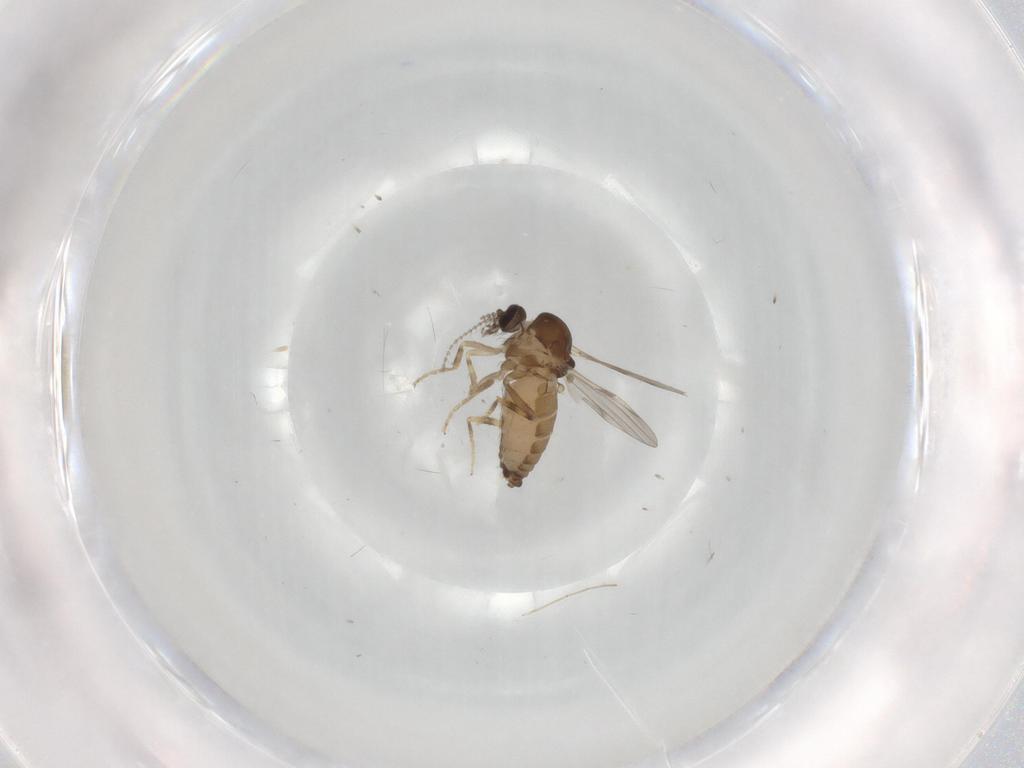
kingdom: Animalia
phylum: Arthropoda
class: Insecta
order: Diptera
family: Ceratopogonidae
